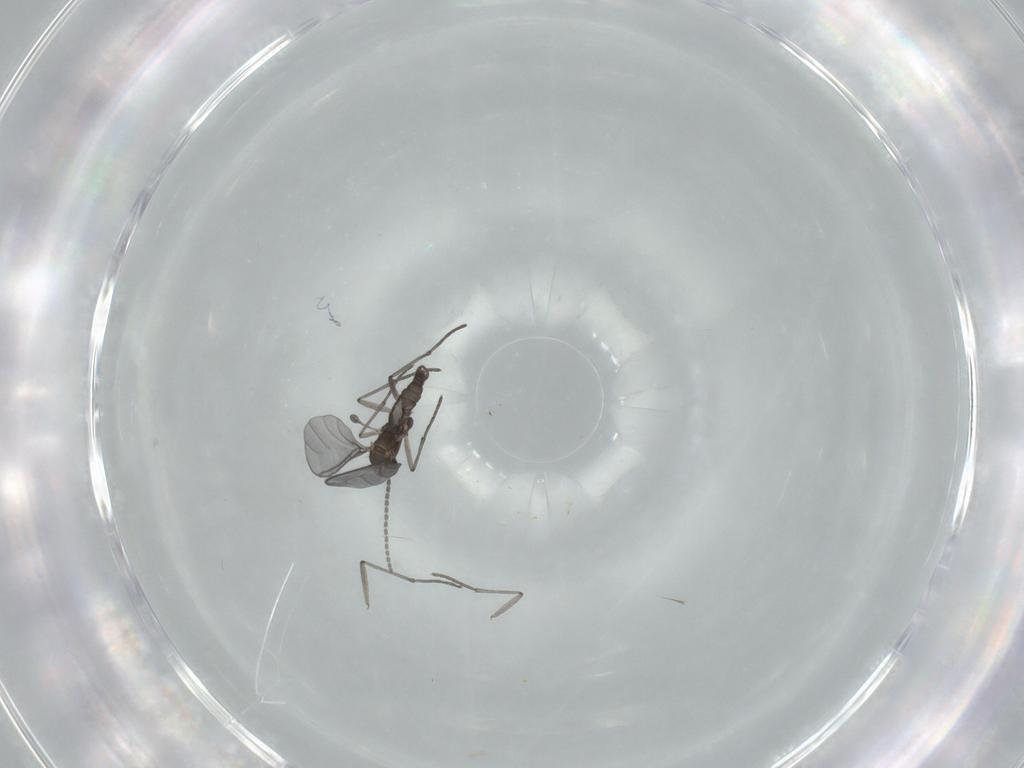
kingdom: Animalia
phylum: Arthropoda
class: Insecta
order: Diptera
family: Sciaridae
